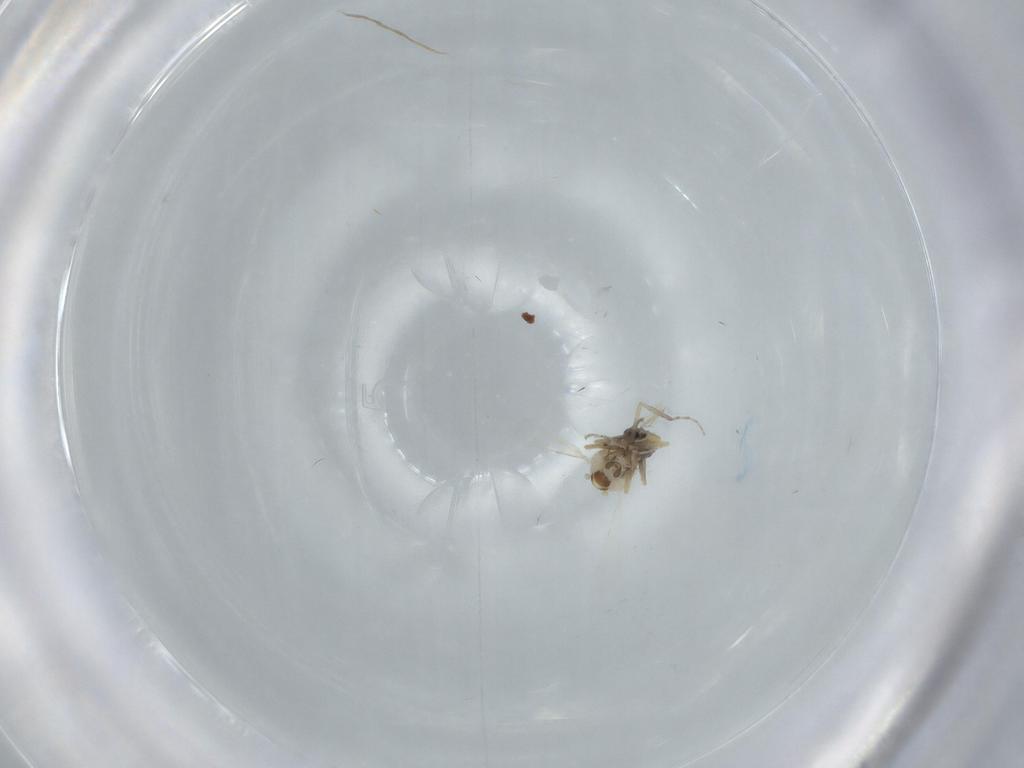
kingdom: Animalia
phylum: Arthropoda
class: Insecta
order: Diptera
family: Ceratopogonidae
